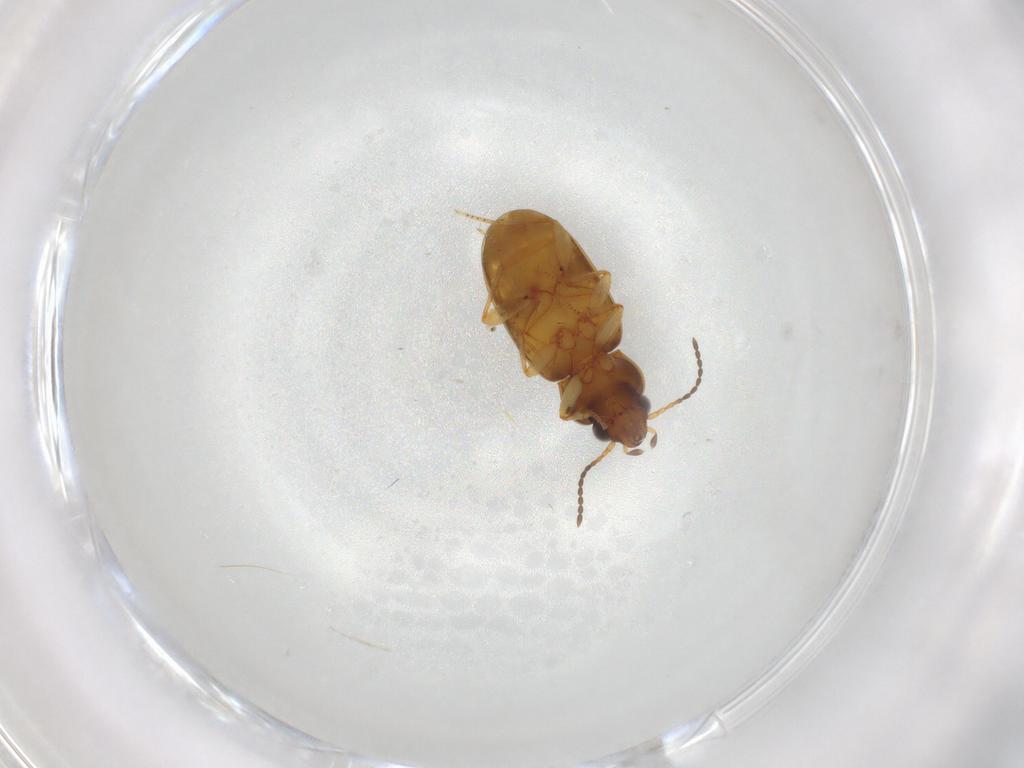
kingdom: Animalia
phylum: Arthropoda
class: Insecta
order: Coleoptera
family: Carabidae
